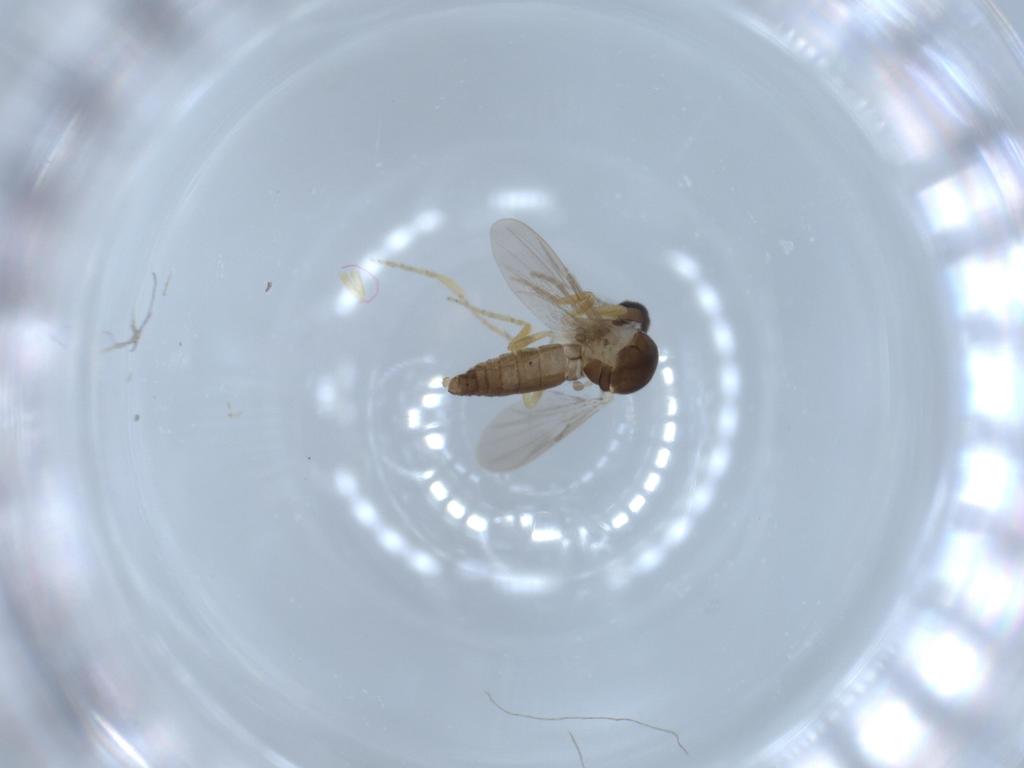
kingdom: Animalia
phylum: Arthropoda
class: Insecta
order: Diptera
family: Ceratopogonidae
